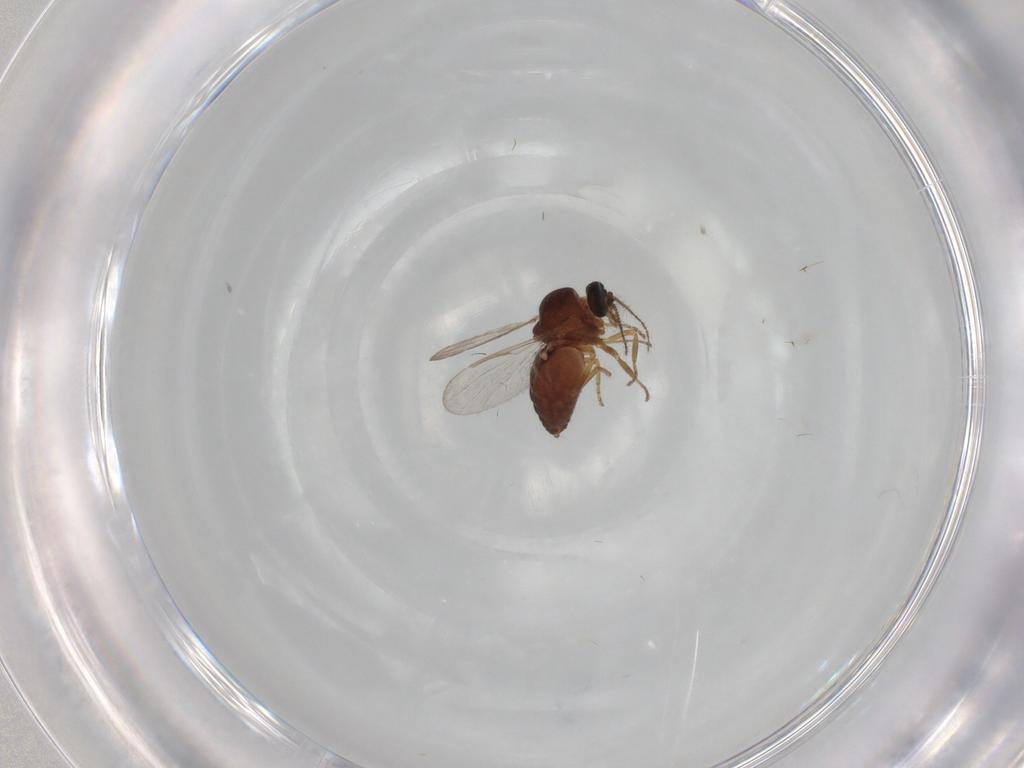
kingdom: Animalia
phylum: Arthropoda
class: Insecta
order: Diptera
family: Ceratopogonidae
